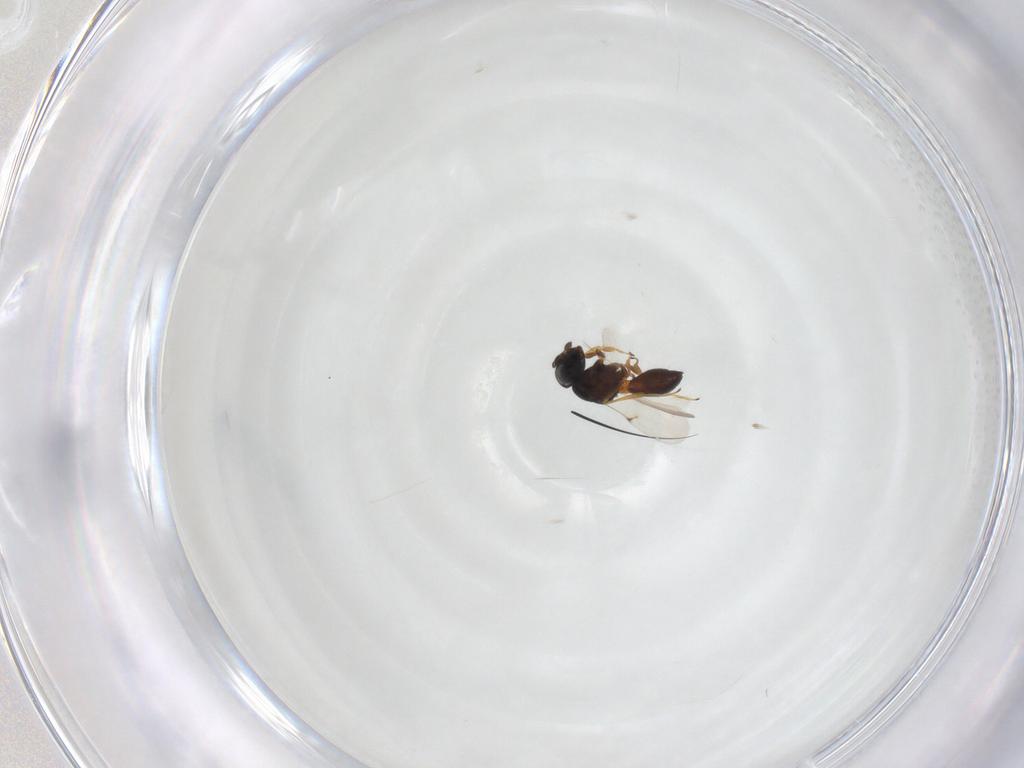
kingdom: Animalia
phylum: Arthropoda
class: Arachnida
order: Araneae
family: Pholcidae
